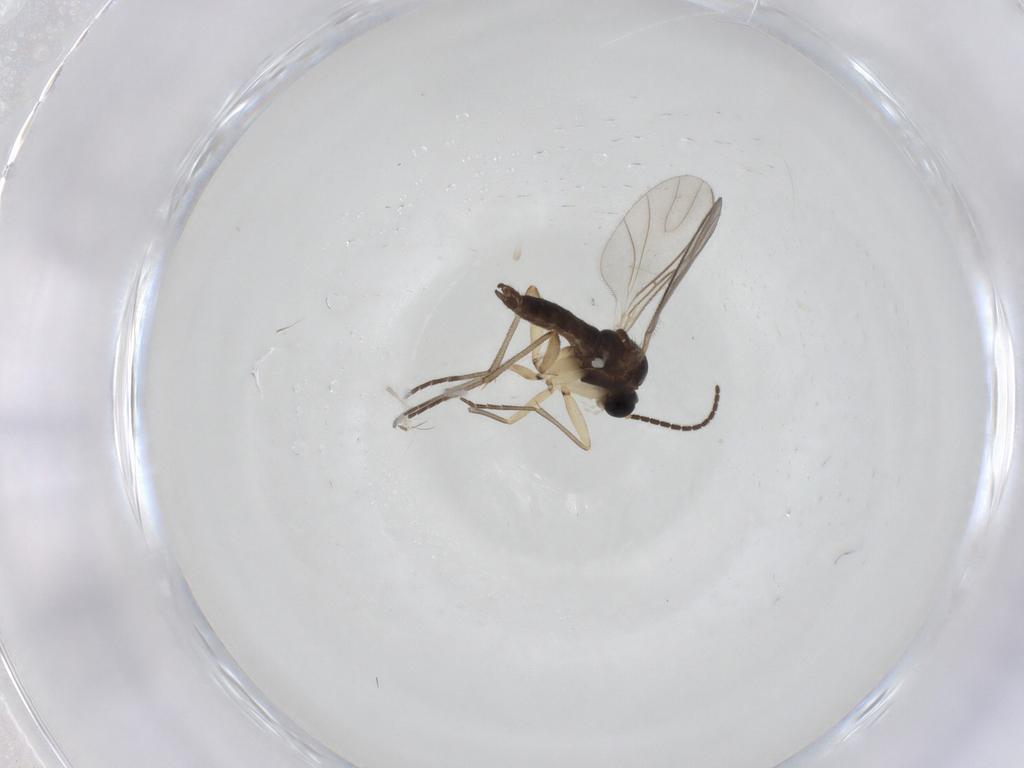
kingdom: Animalia
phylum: Arthropoda
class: Insecta
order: Diptera
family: Sciaridae
